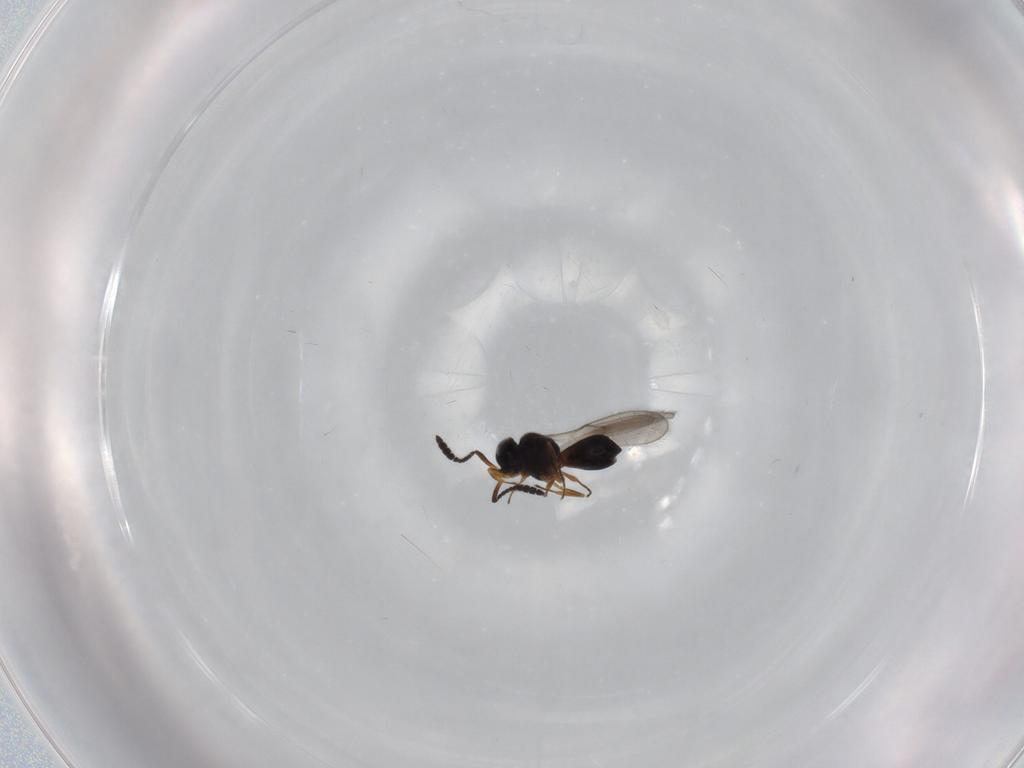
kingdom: Animalia
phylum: Arthropoda
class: Insecta
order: Hymenoptera
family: Scelionidae
